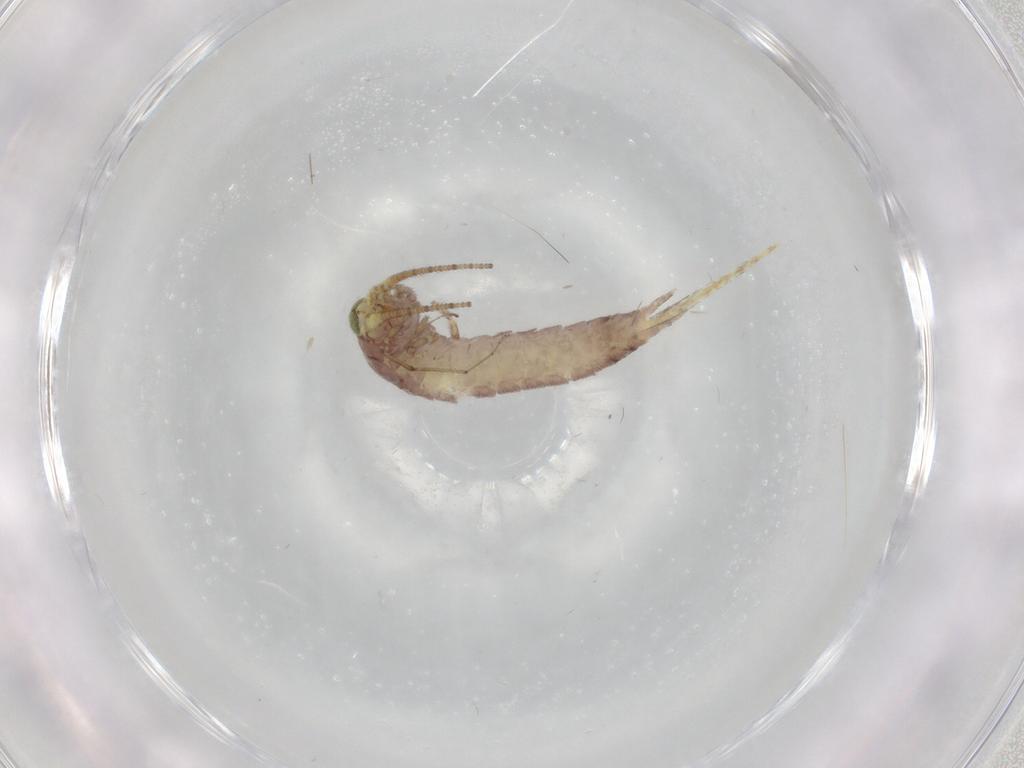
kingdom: Animalia
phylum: Arthropoda
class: Insecta
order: Archaeognatha
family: Machilidae
